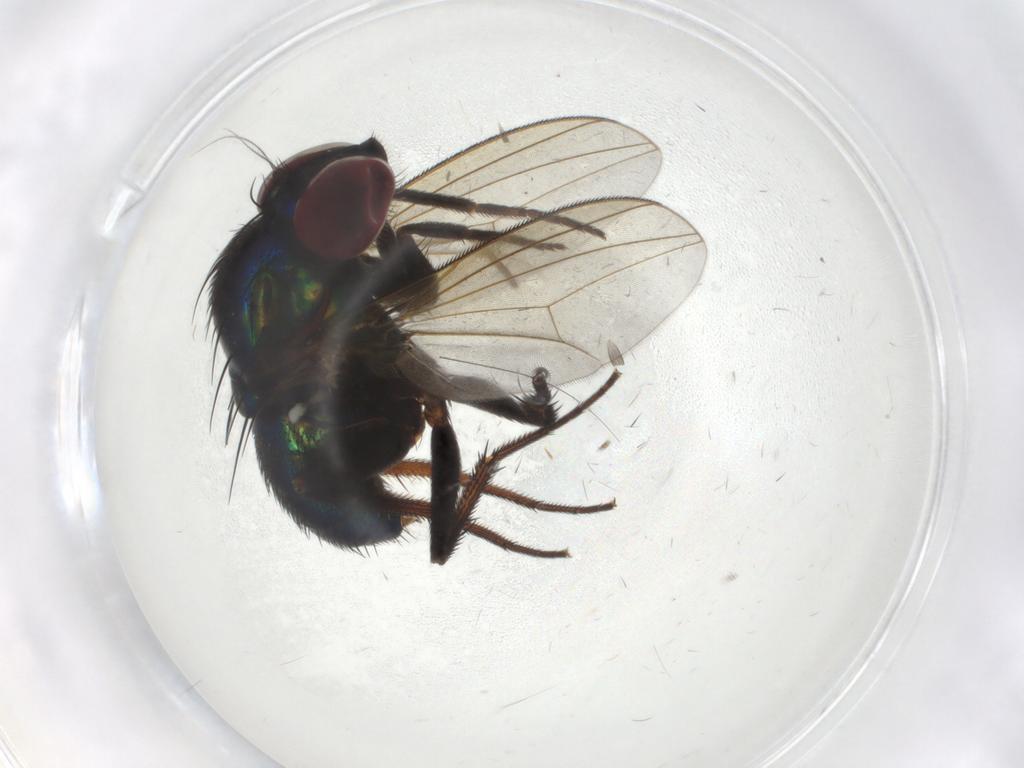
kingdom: Animalia
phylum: Arthropoda
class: Insecta
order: Diptera
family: Dolichopodidae
